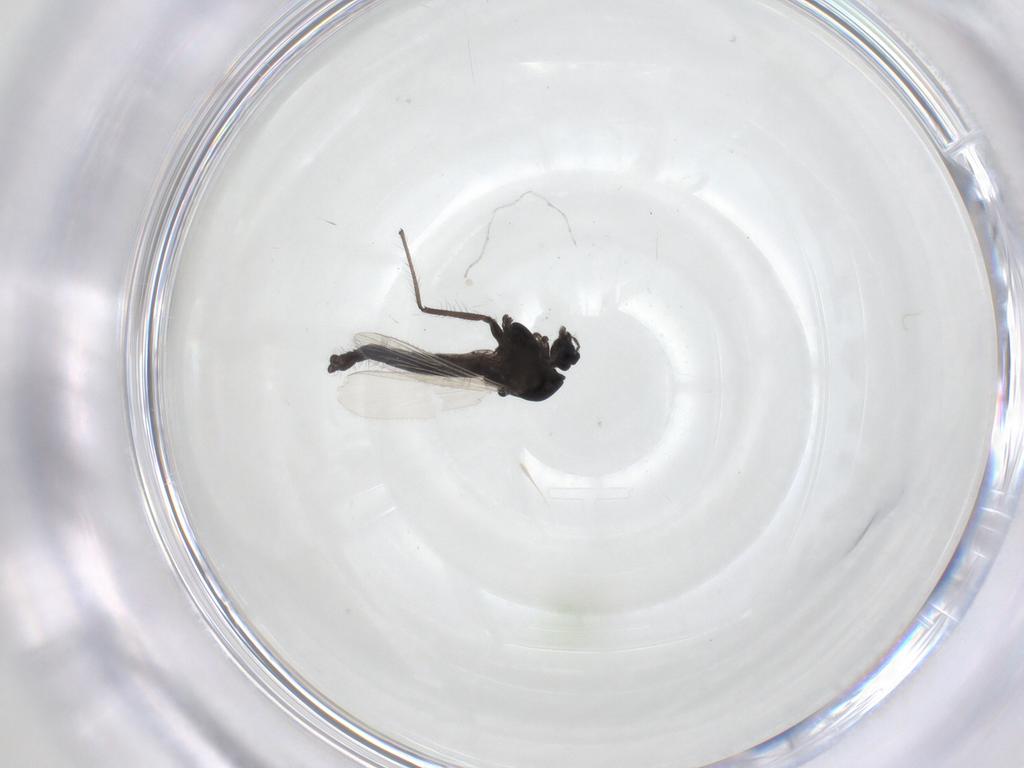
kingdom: Animalia
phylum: Arthropoda
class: Insecta
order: Diptera
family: Chironomidae
